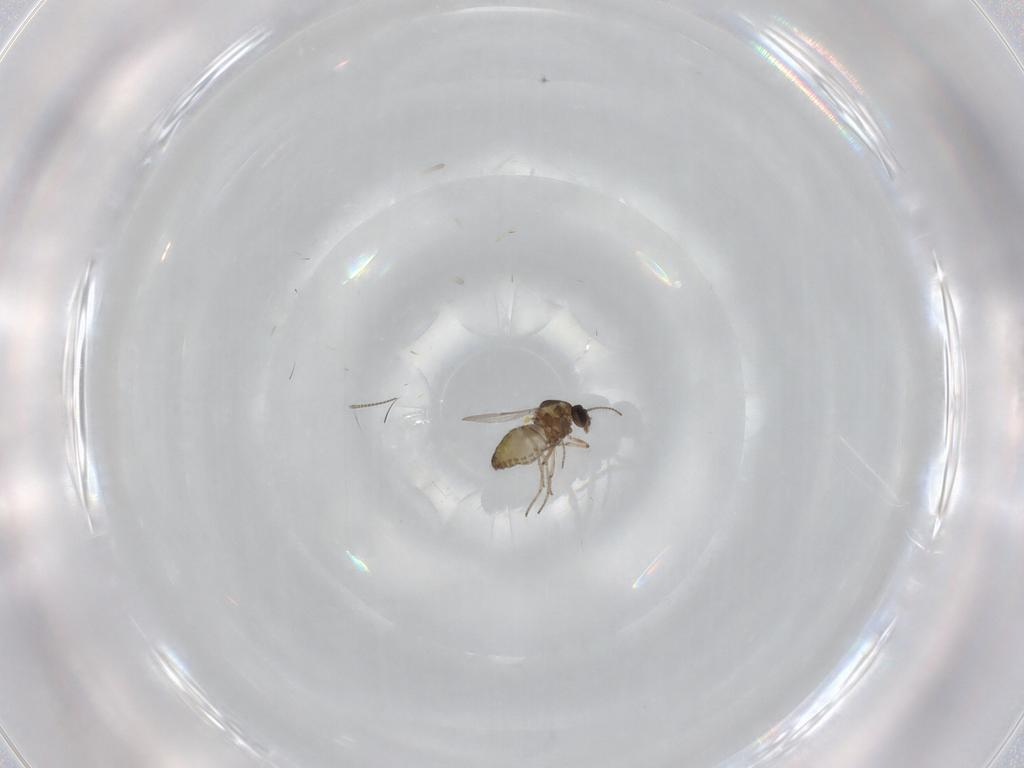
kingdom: Animalia
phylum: Arthropoda
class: Insecta
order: Diptera
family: Ceratopogonidae
